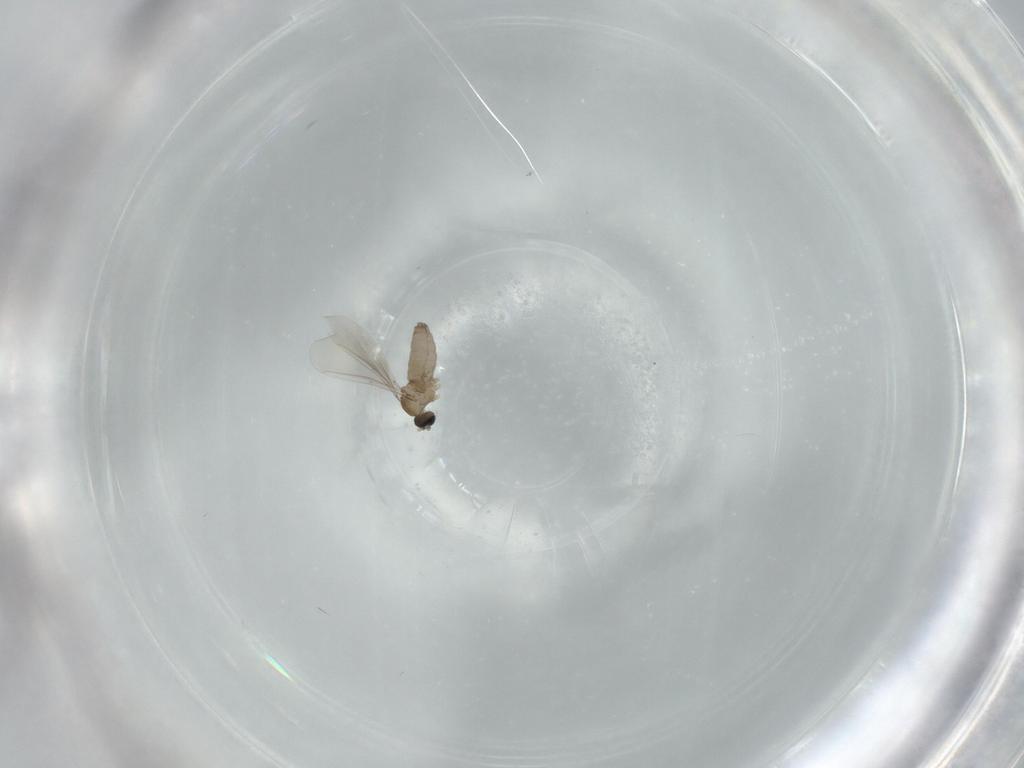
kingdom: Animalia
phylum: Arthropoda
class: Insecta
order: Diptera
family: Cecidomyiidae
